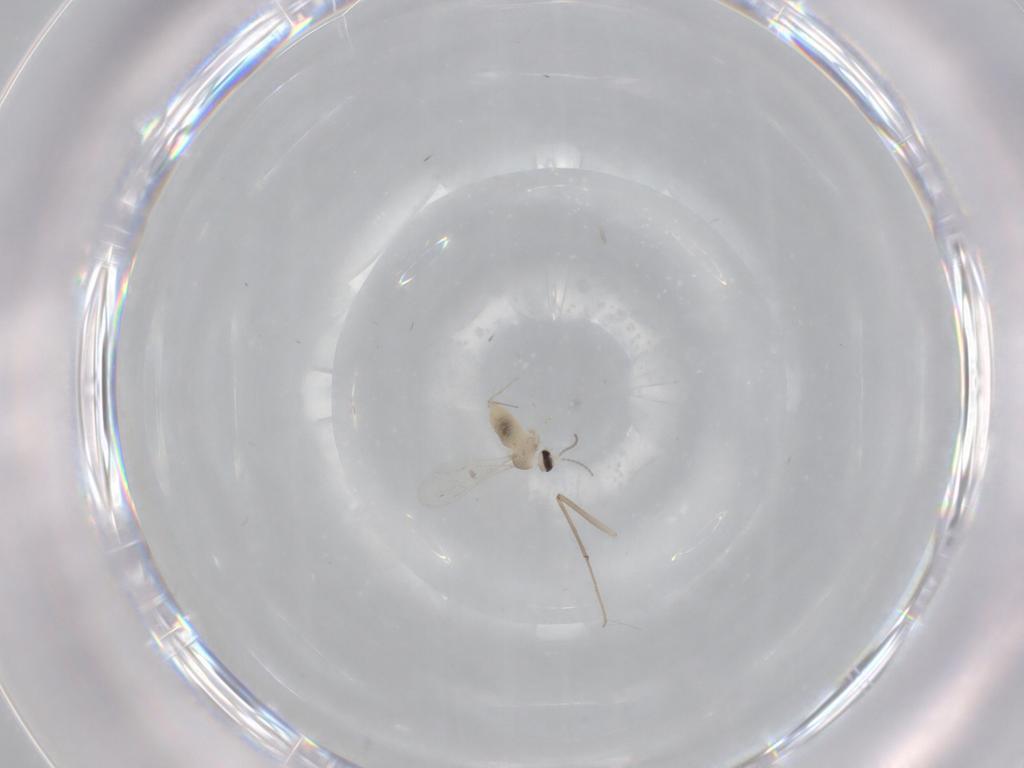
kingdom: Animalia
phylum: Arthropoda
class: Insecta
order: Diptera
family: Cecidomyiidae
